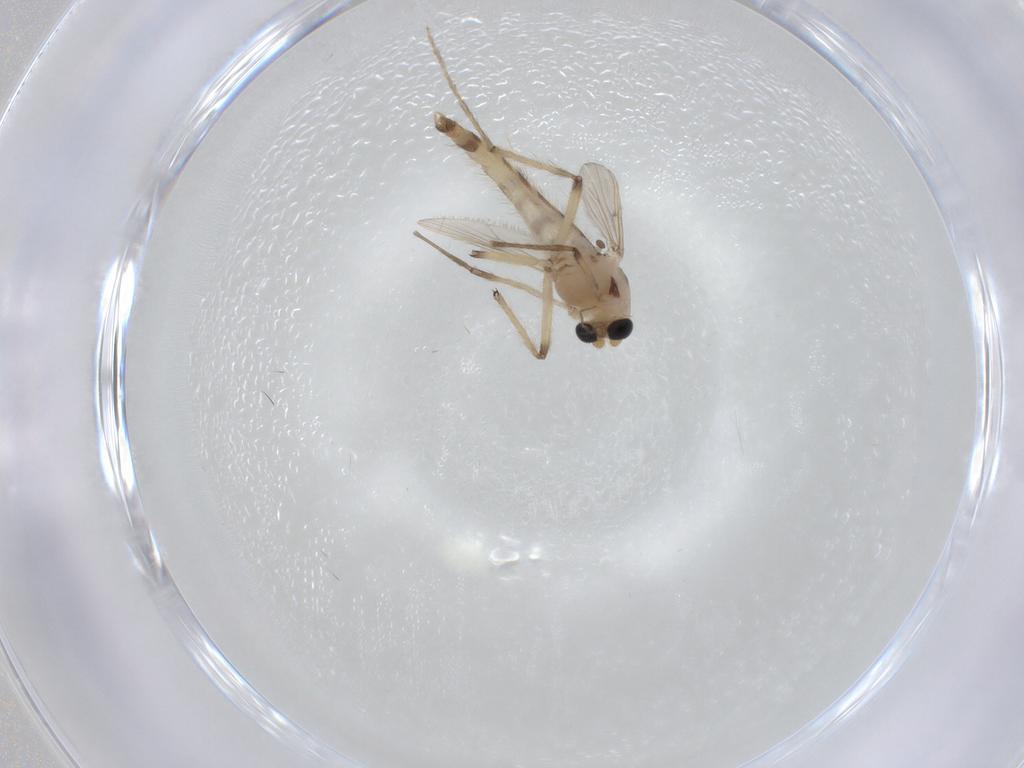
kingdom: Animalia
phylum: Arthropoda
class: Insecta
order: Diptera
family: Chironomidae
